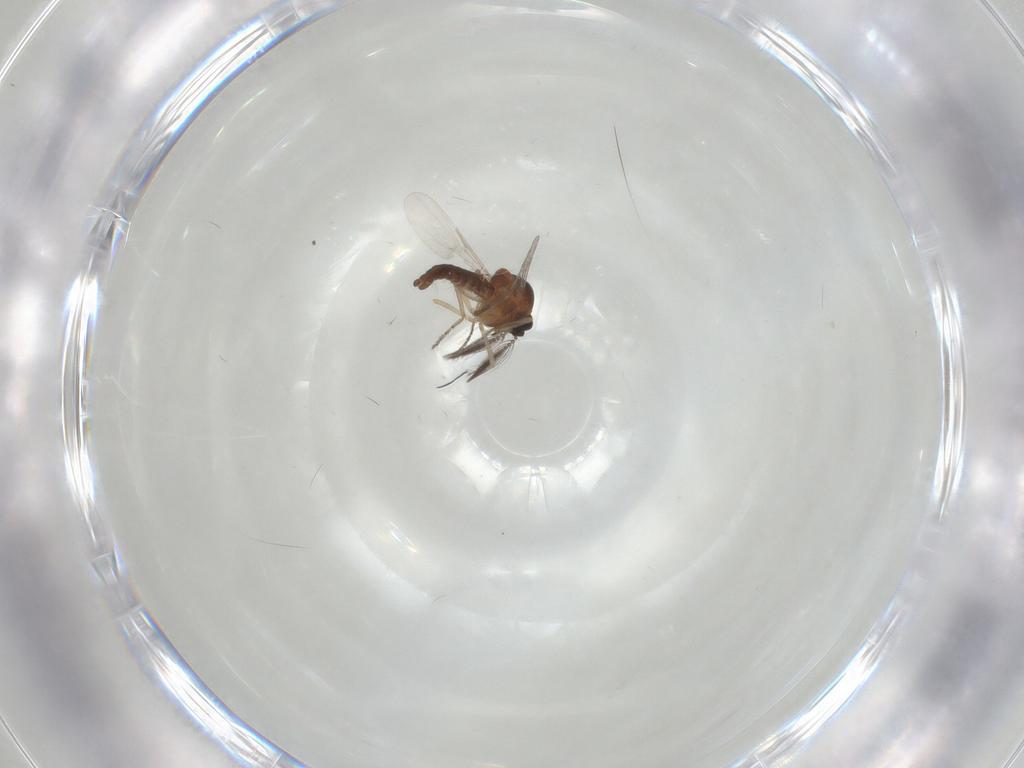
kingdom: Animalia
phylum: Arthropoda
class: Insecta
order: Diptera
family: Ceratopogonidae
